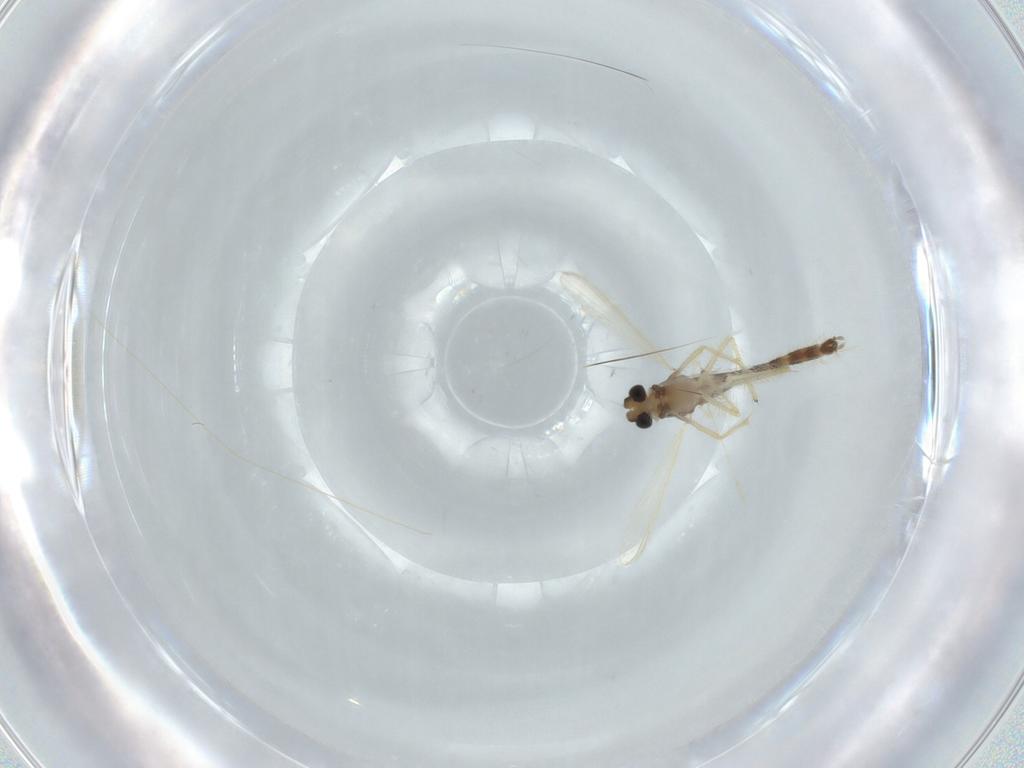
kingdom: Animalia
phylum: Arthropoda
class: Insecta
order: Diptera
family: Chironomidae
